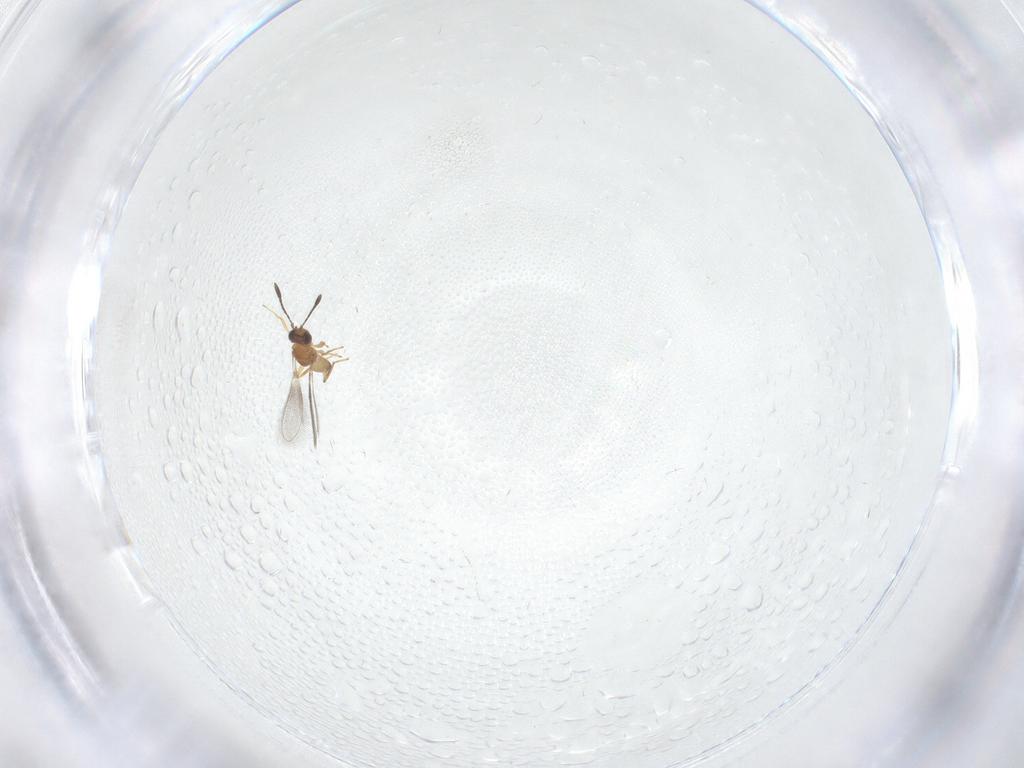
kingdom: Animalia
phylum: Arthropoda
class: Insecta
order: Hymenoptera
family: Mymaridae
